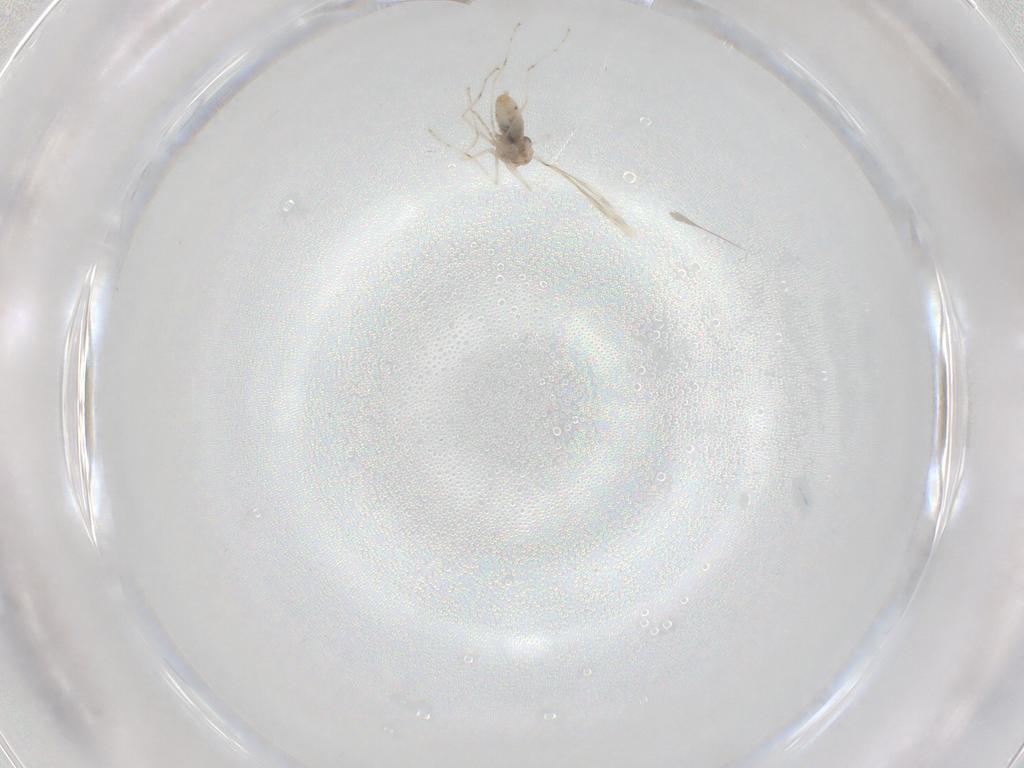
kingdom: Animalia
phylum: Arthropoda
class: Insecta
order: Diptera
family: Cecidomyiidae
